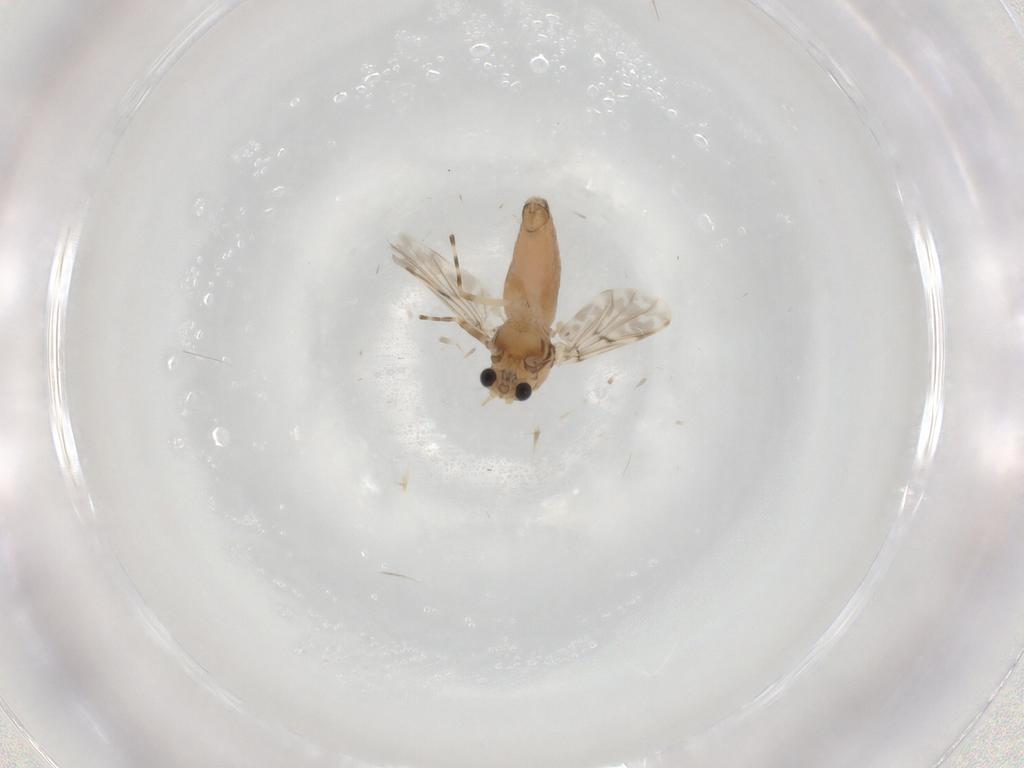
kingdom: Animalia
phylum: Arthropoda
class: Insecta
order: Diptera
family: Chironomidae
